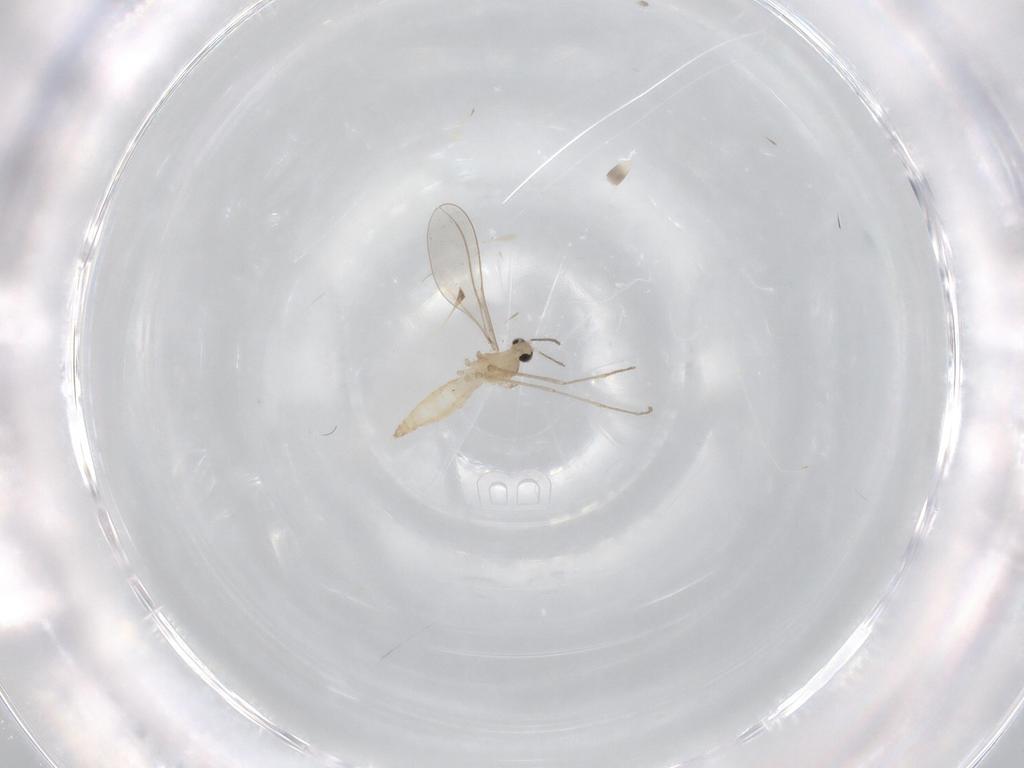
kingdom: Animalia
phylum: Arthropoda
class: Insecta
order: Diptera
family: Cecidomyiidae
